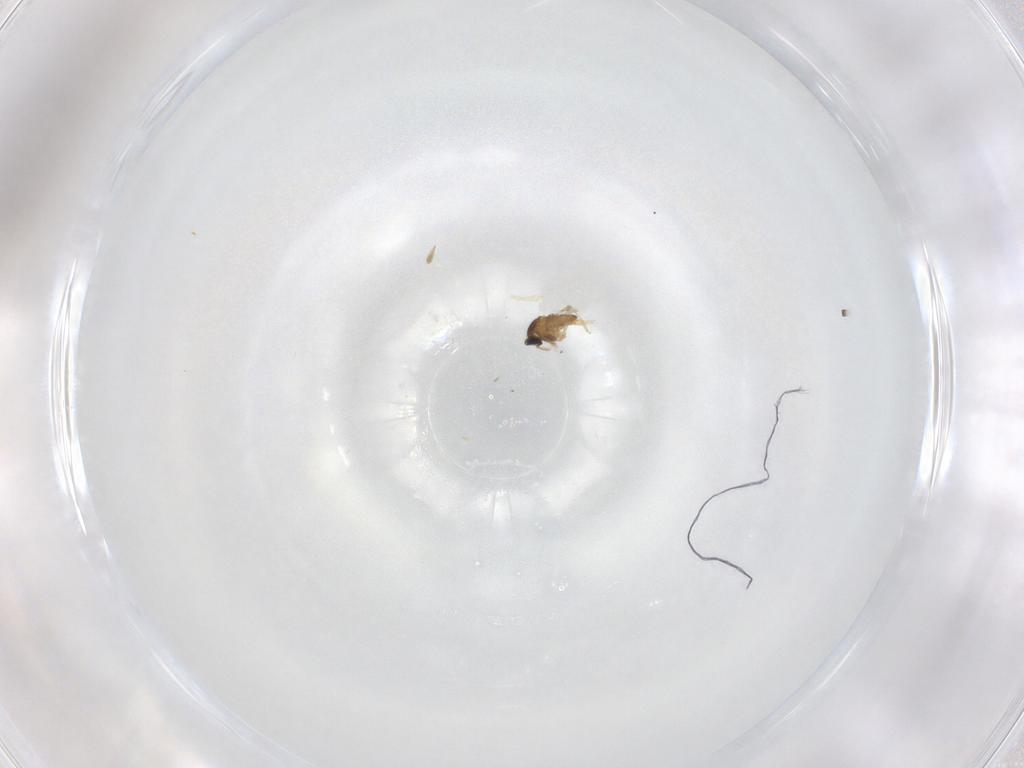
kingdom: Animalia
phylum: Arthropoda
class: Insecta
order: Diptera
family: Cecidomyiidae
